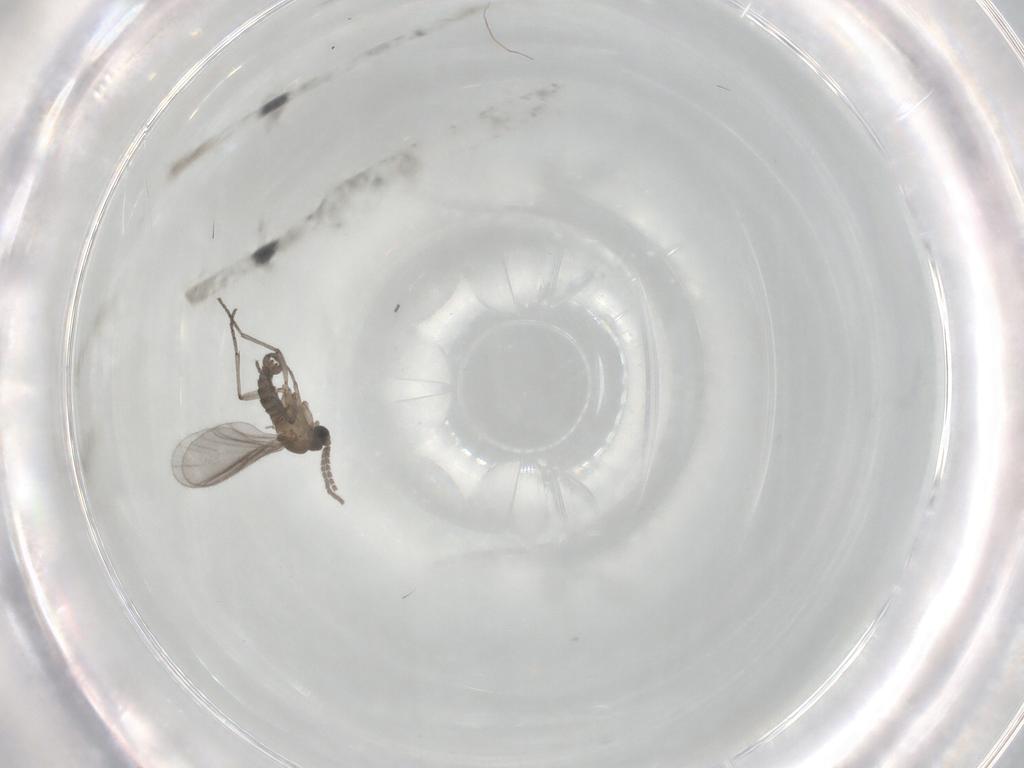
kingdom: Animalia
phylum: Arthropoda
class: Insecta
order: Diptera
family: Sciaridae
